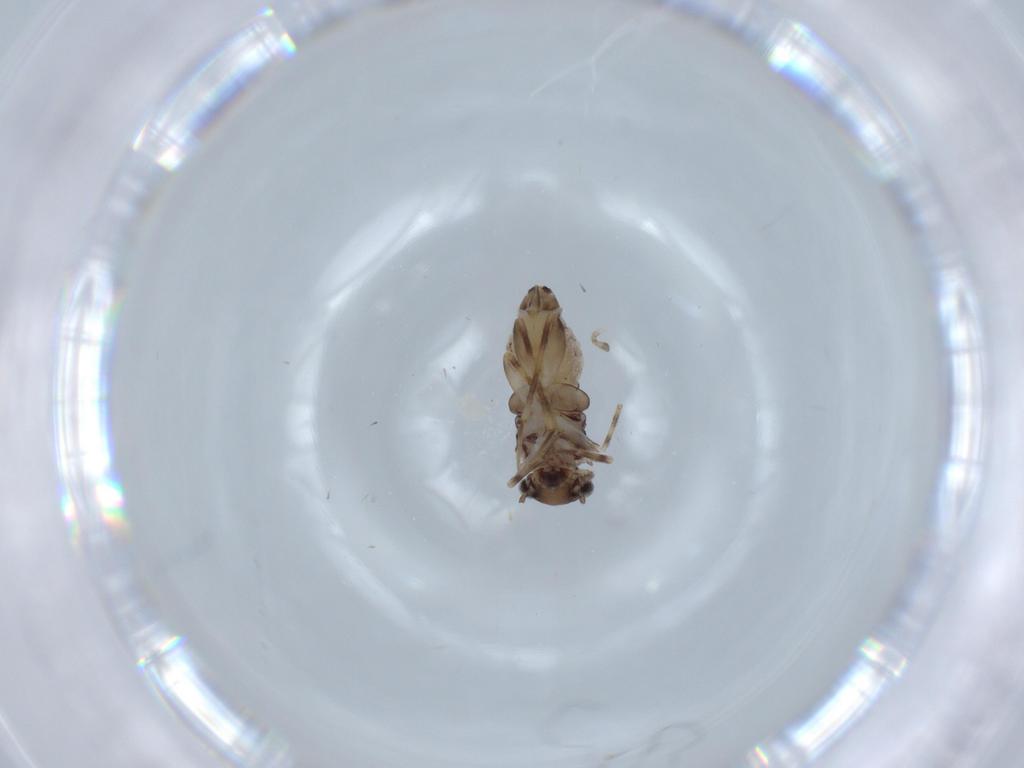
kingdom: Animalia
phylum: Arthropoda
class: Insecta
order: Psocodea
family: Lepidopsocidae
